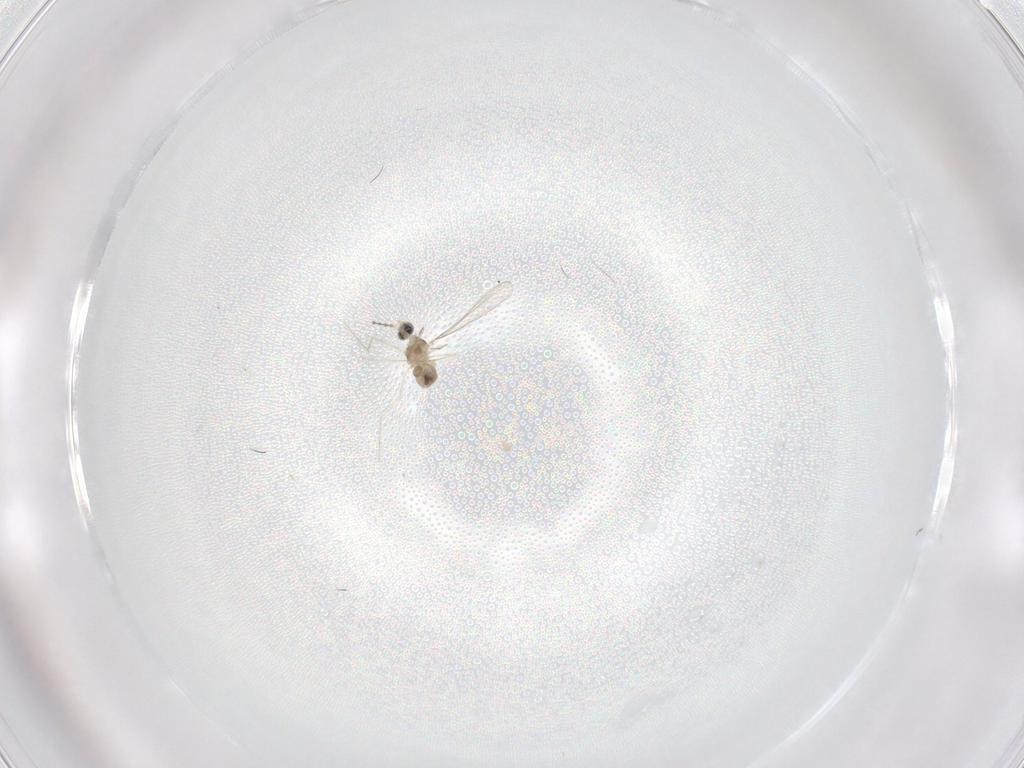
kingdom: Animalia
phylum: Arthropoda
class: Insecta
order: Diptera
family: Cecidomyiidae
